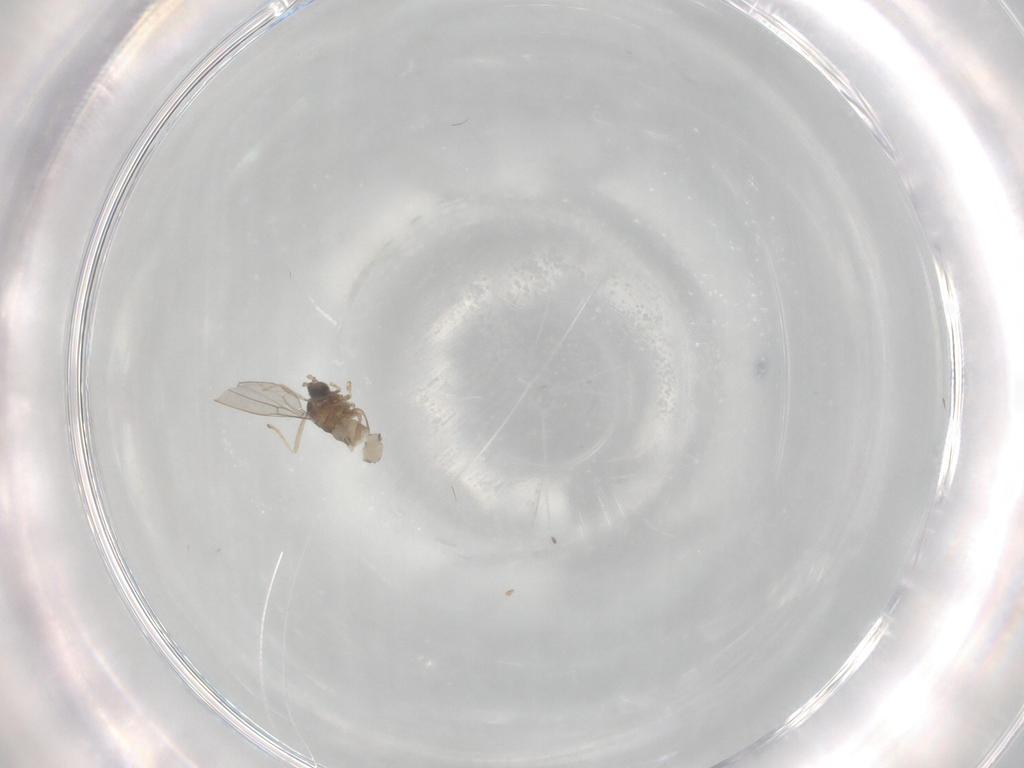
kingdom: Animalia
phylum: Arthropoda
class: Insecta
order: Diptera
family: Cecidomyiidae
